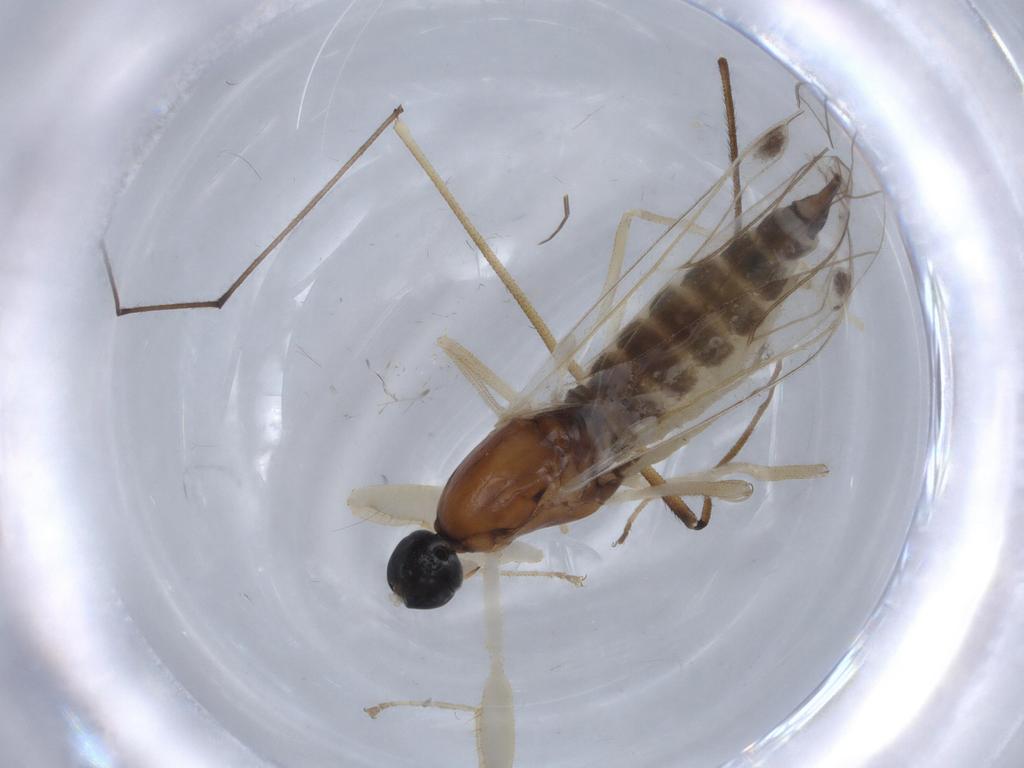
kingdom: Animalia
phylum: Arthropoda
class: Insecta
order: Diptera
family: Empididae
